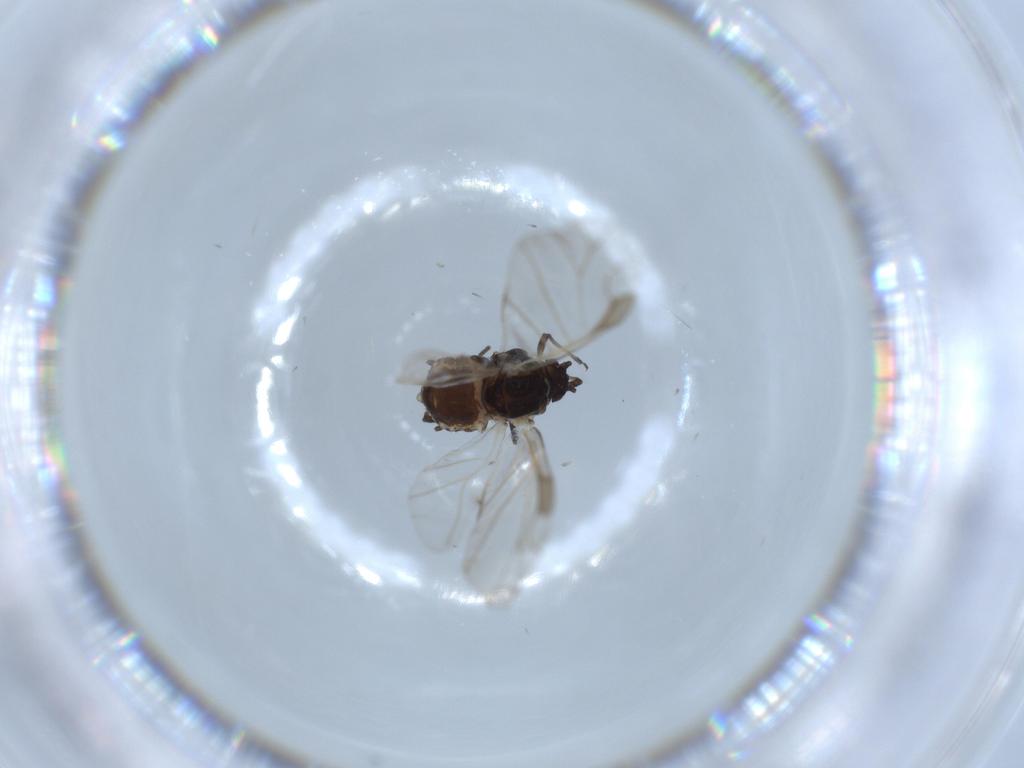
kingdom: Animalia
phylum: Arthropoda
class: Insecta
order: Hemiptera
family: Aphididae
